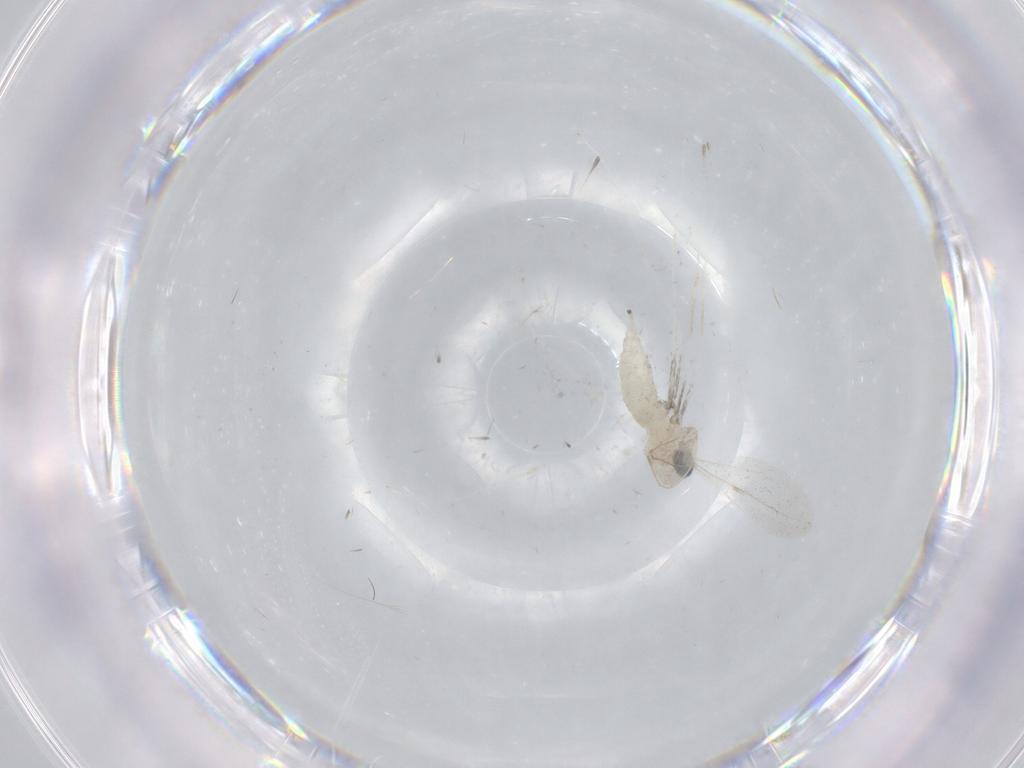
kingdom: Animalia
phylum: Arthropoda
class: Insecta
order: Diptera
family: Cecidomyiidae
